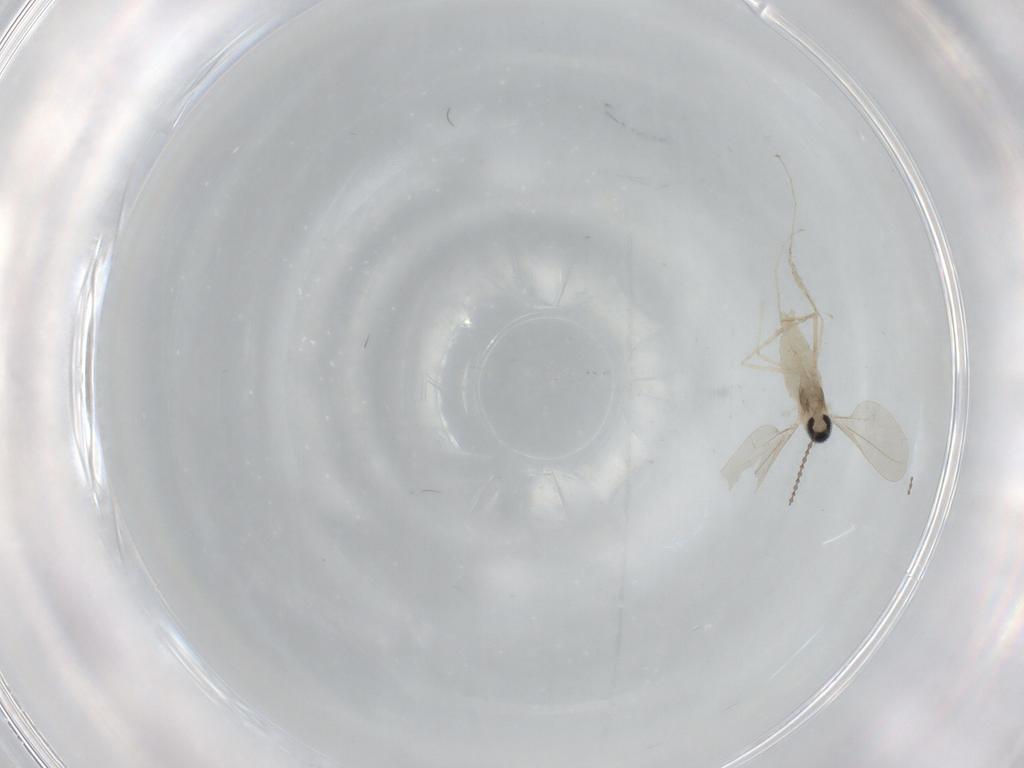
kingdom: Animalia
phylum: Arthropoda
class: Insecta
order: Diptera
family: Cecidomyiidae
